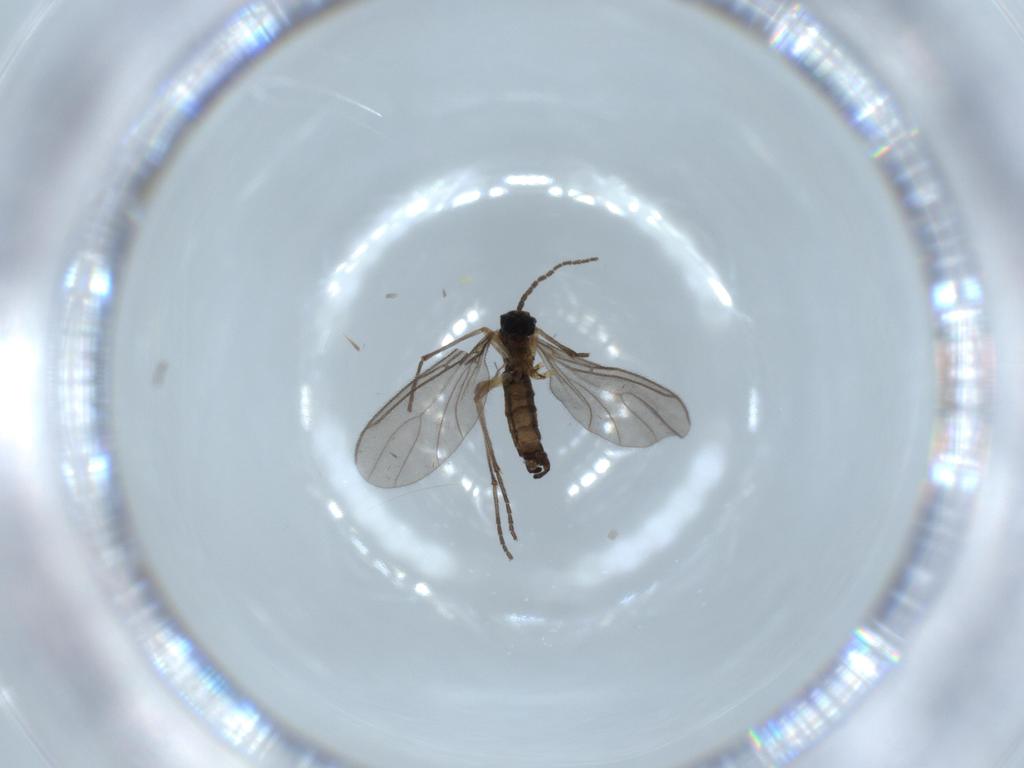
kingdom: Animalia
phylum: Arthropoda
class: Insecta
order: Diptera
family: Sciaridae
